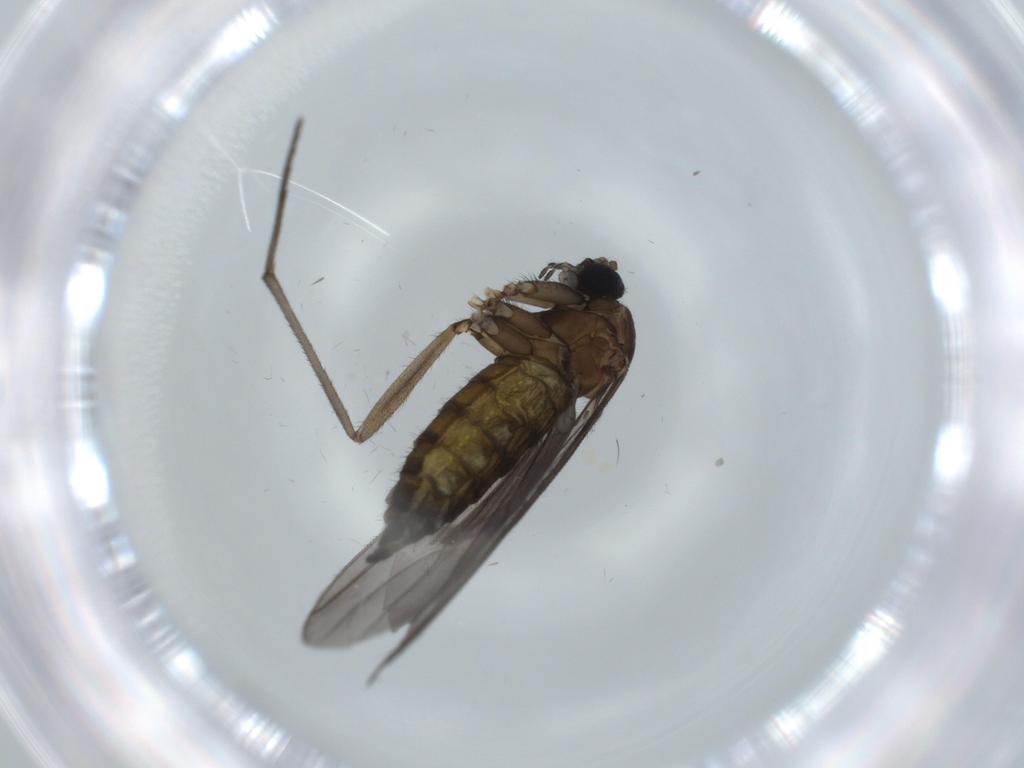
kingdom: Animalia
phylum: Arthropoda
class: Insecta
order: Diptera
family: Sciaridae
